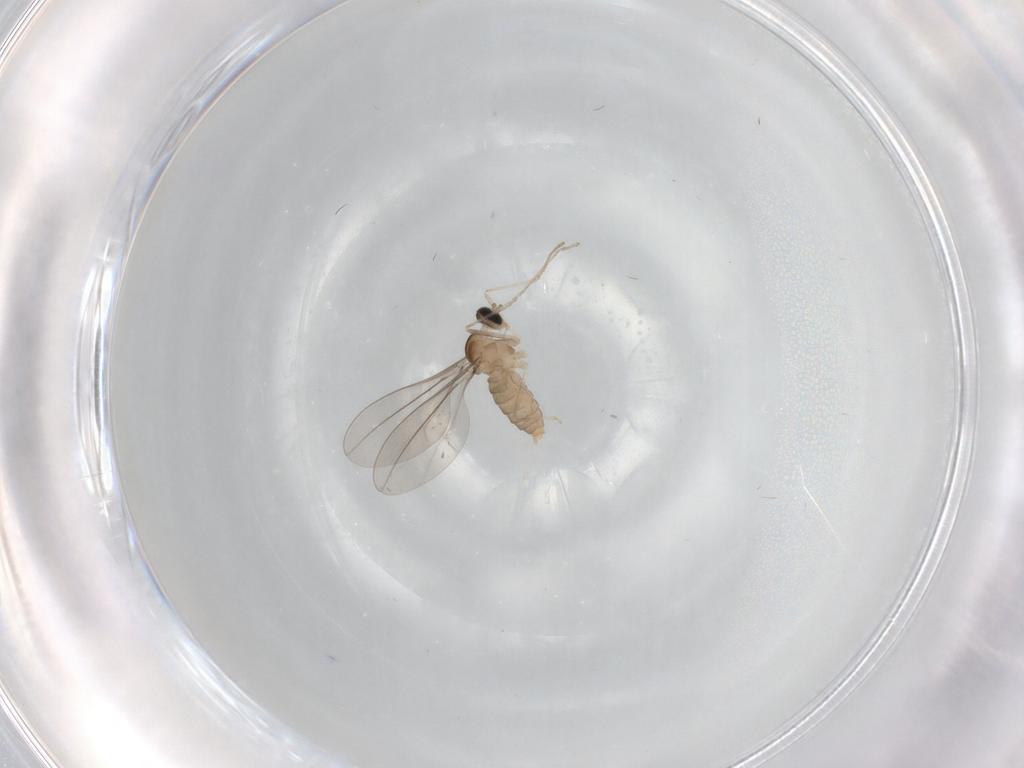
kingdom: Animalia
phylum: Arthropoda
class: Insecta
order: Diptera
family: Cecidomyiidae
